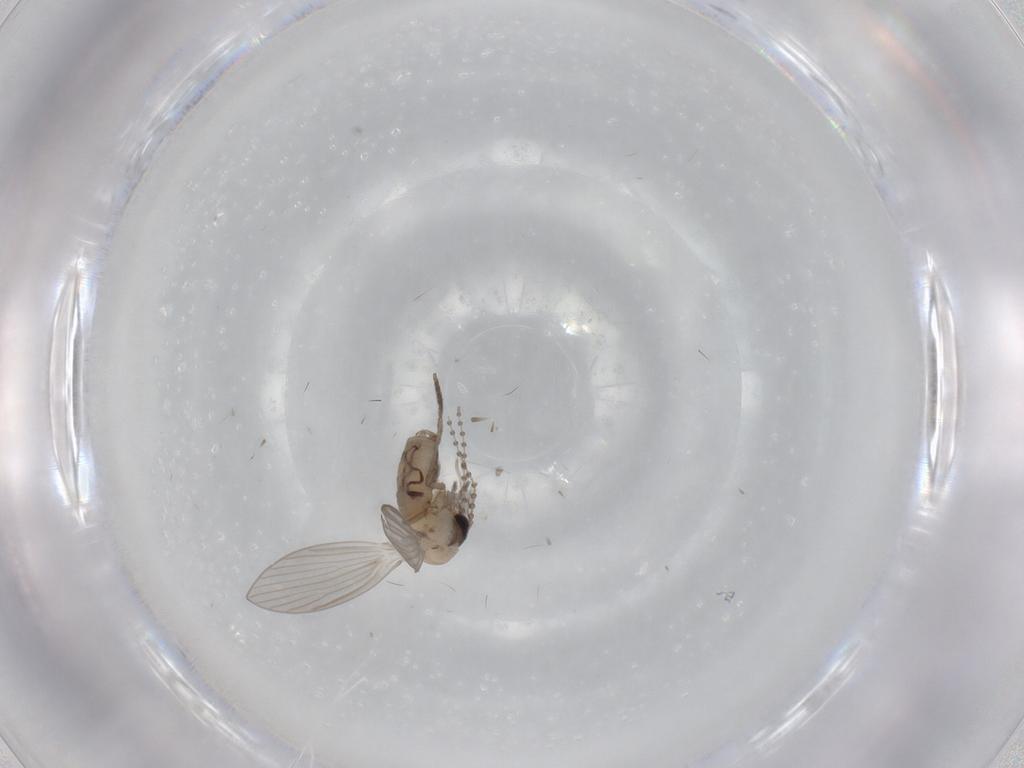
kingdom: Animalia
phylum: Arthropoda
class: Insecta
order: Diptera
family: Psychodidae
